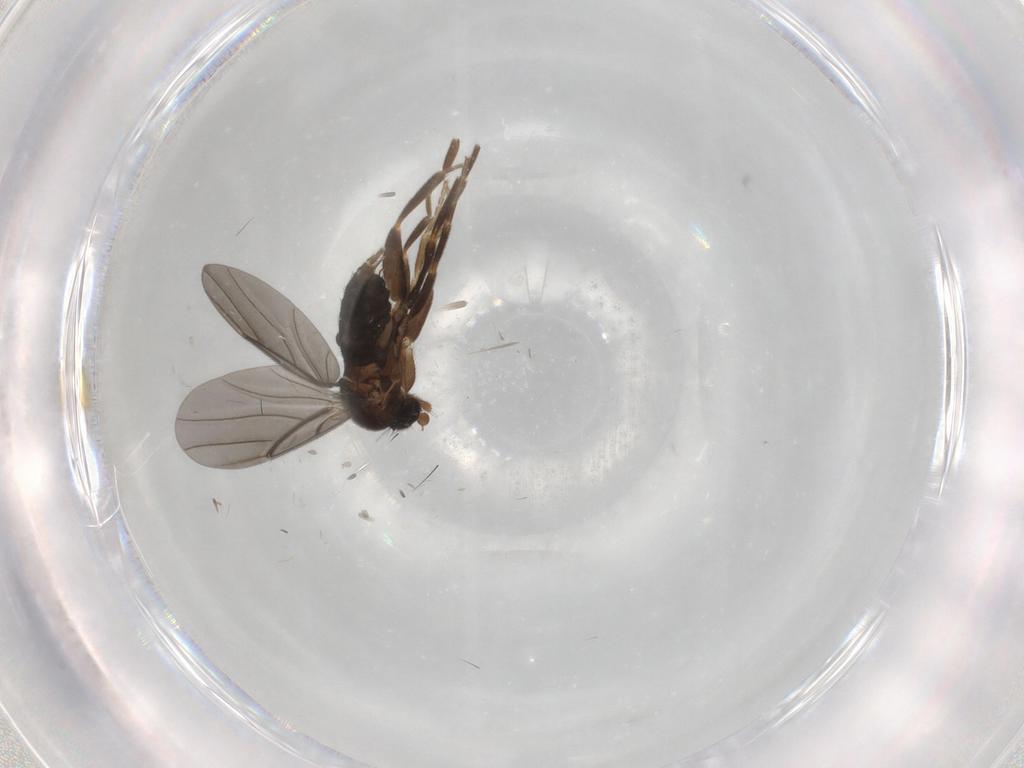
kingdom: Animalia
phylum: Arthropoda
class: Insecta
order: Diptera
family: Phoridae
